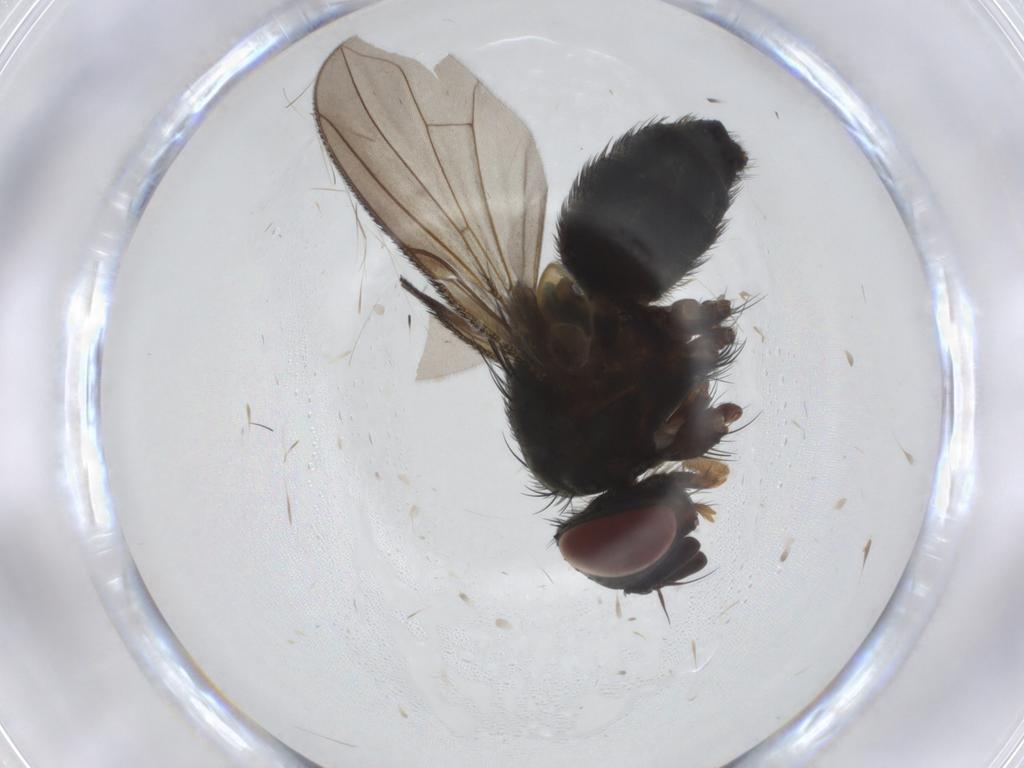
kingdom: Animalia
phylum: Arthropoda
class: Insecta
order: Diptera
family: Tachinidae
